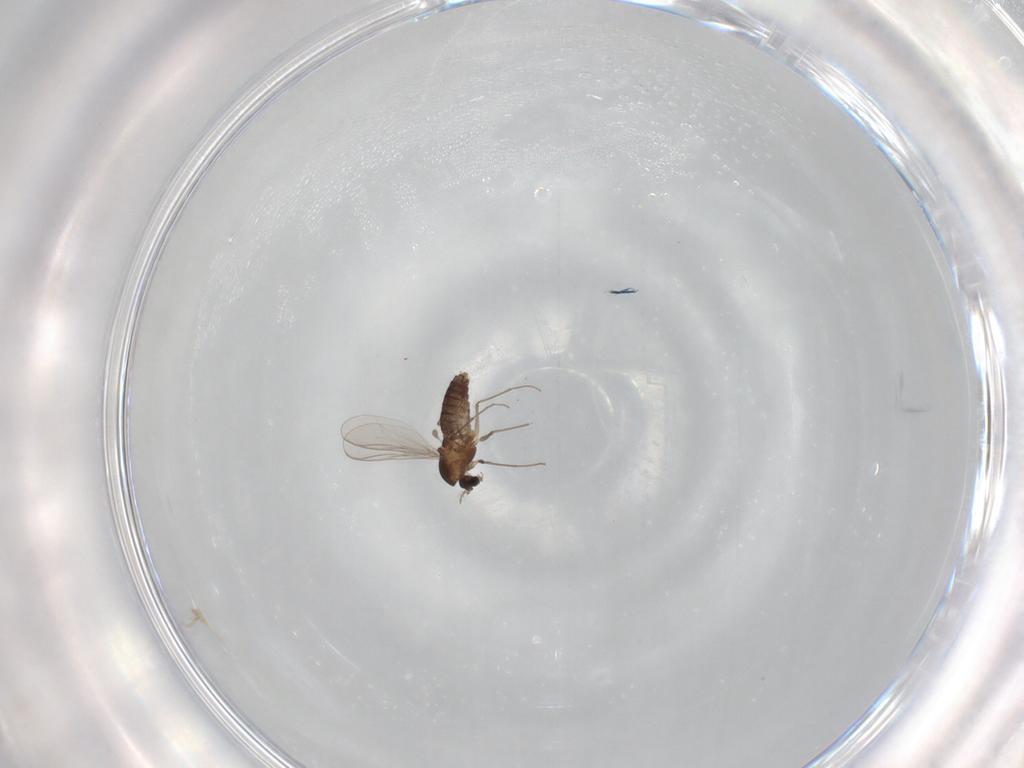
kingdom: Animalia
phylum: Arthropoda
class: Insecta
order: Diptera
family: Chironomidae
